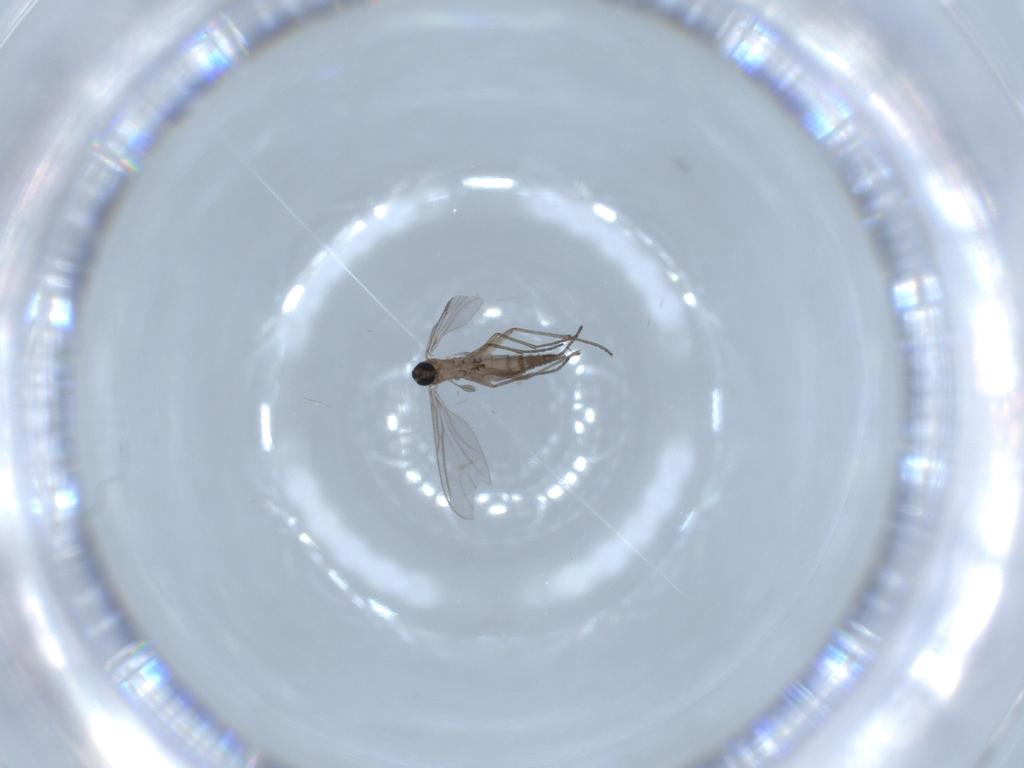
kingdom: Animalia
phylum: Arthropoda
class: Insecta
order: Diptera
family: Sciaridae
